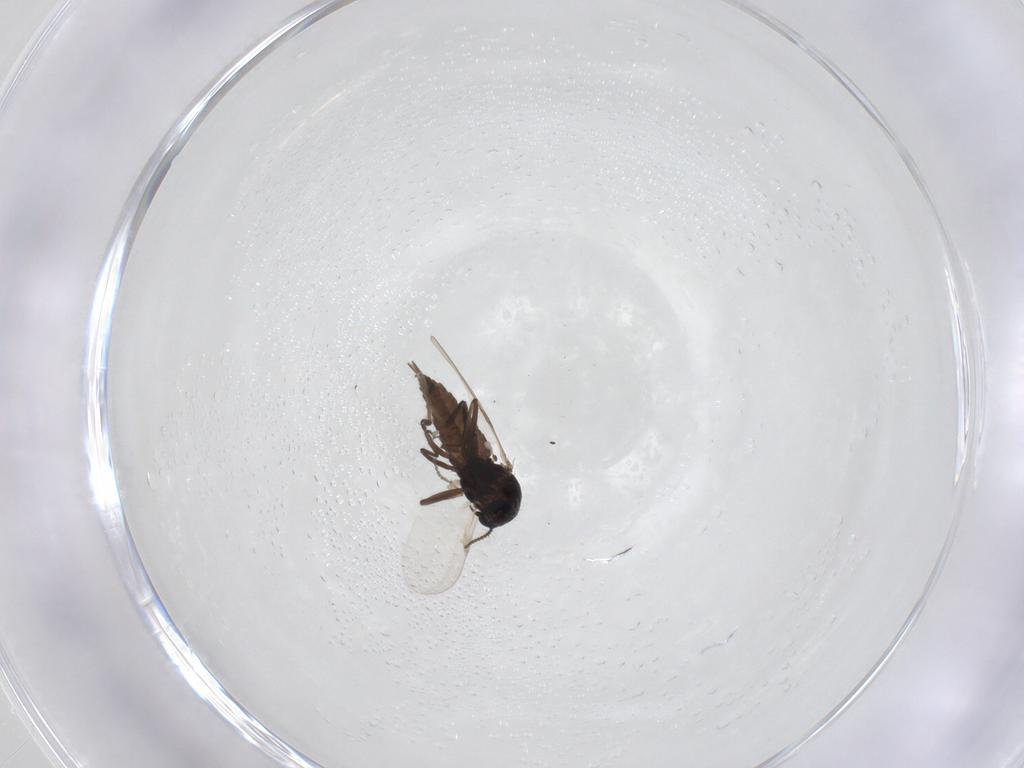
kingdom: Animalia
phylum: Arthropoda
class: Insecta
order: Diptera
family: Ceratopogonidae
